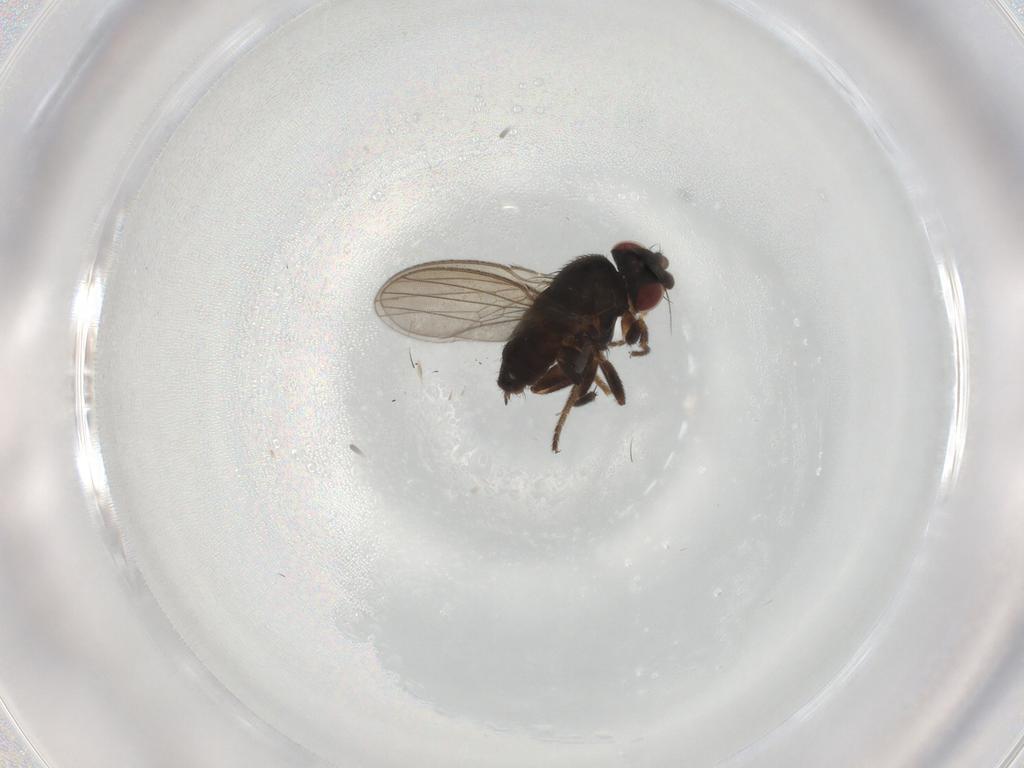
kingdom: Animalia
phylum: Arthropoda
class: Insecta
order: Diptera
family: Milichiidae
